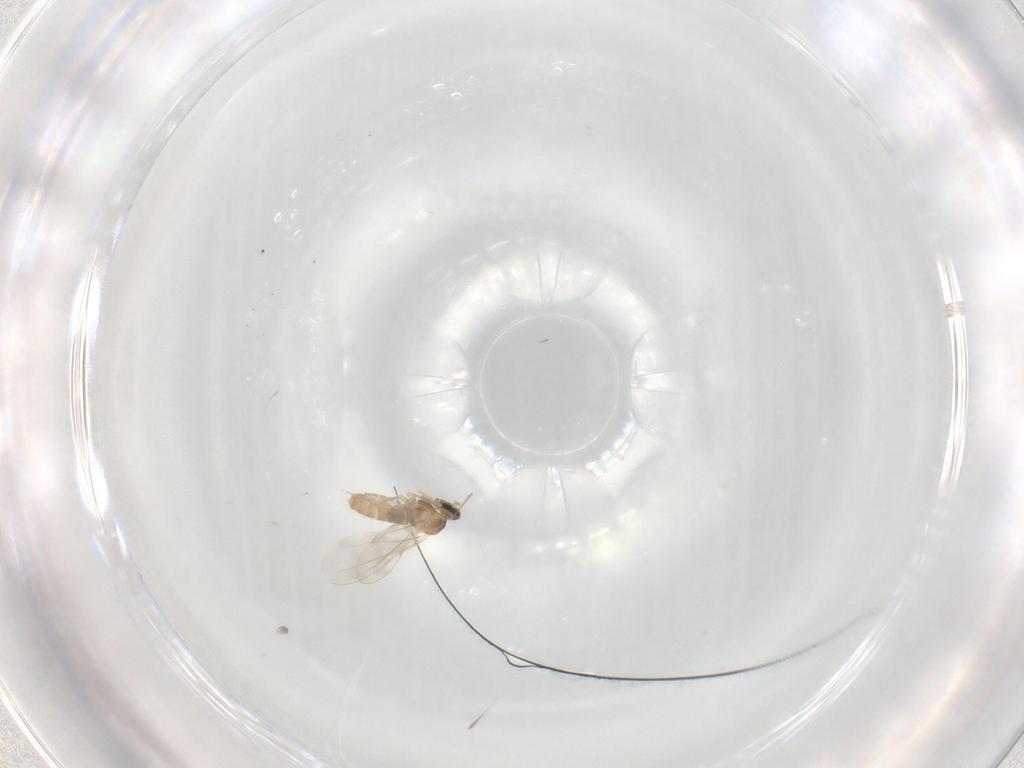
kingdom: Animalia
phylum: Arthropoda
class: Insecta
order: Diptera
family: Cecidomyiidae
